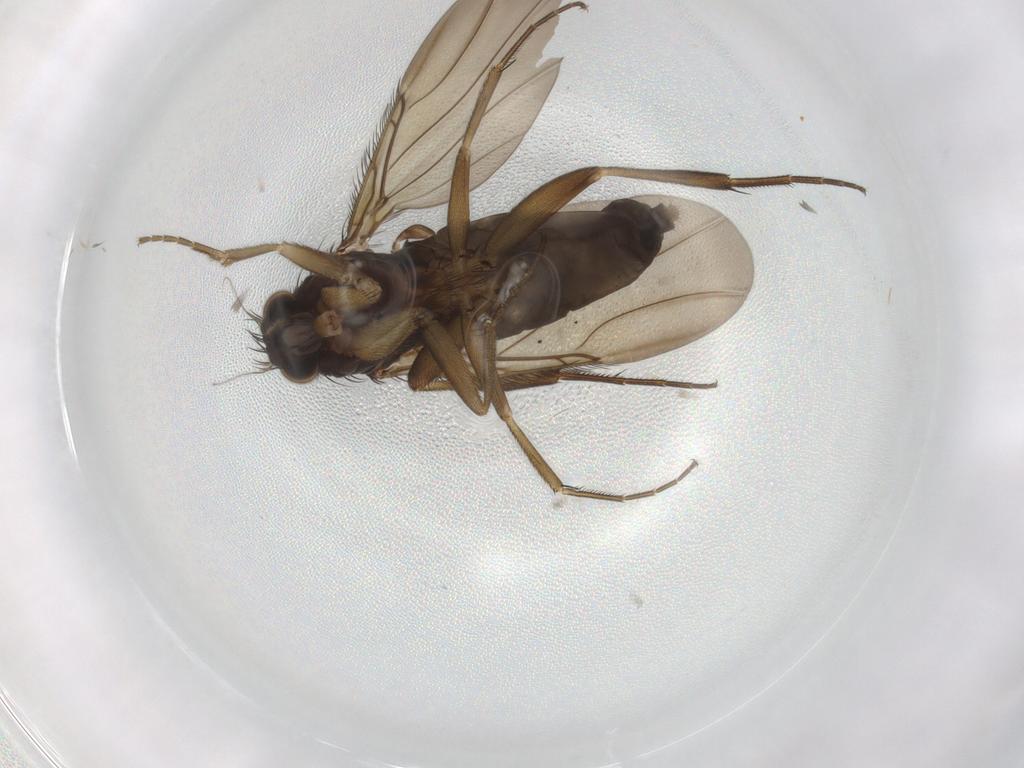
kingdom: Animalia
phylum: Arthropoda
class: Insecta
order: Diptera
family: Phoridae
